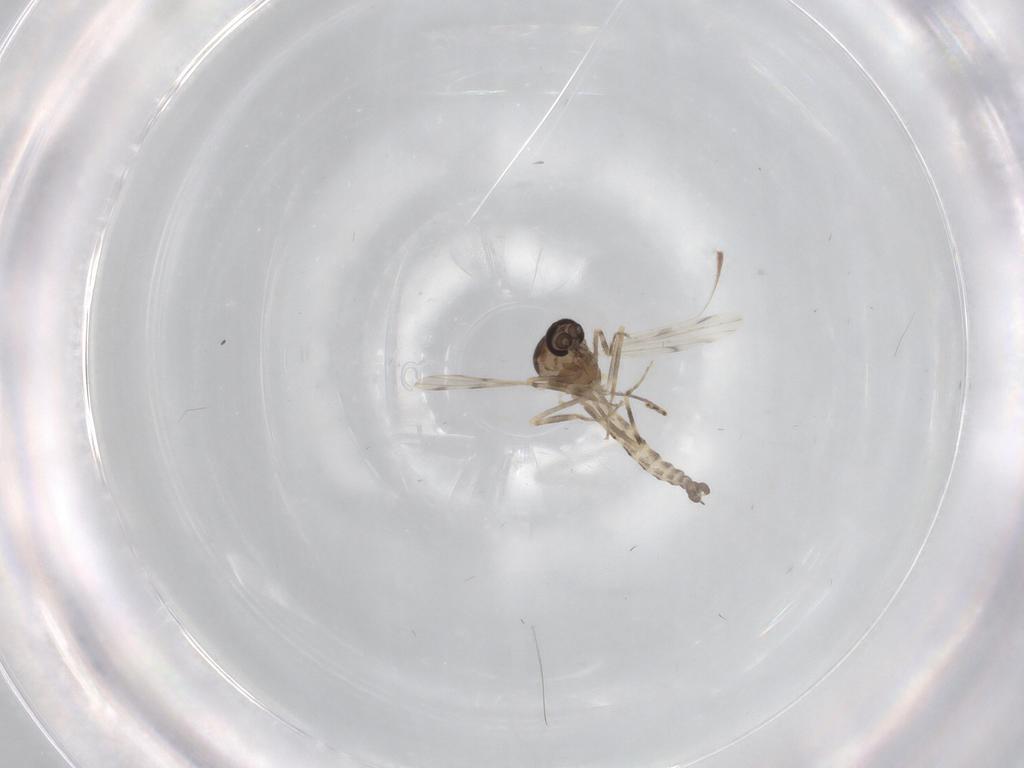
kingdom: Animalia
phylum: Arthropoda
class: Insecta
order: Diptera
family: Ceratopogonidae
